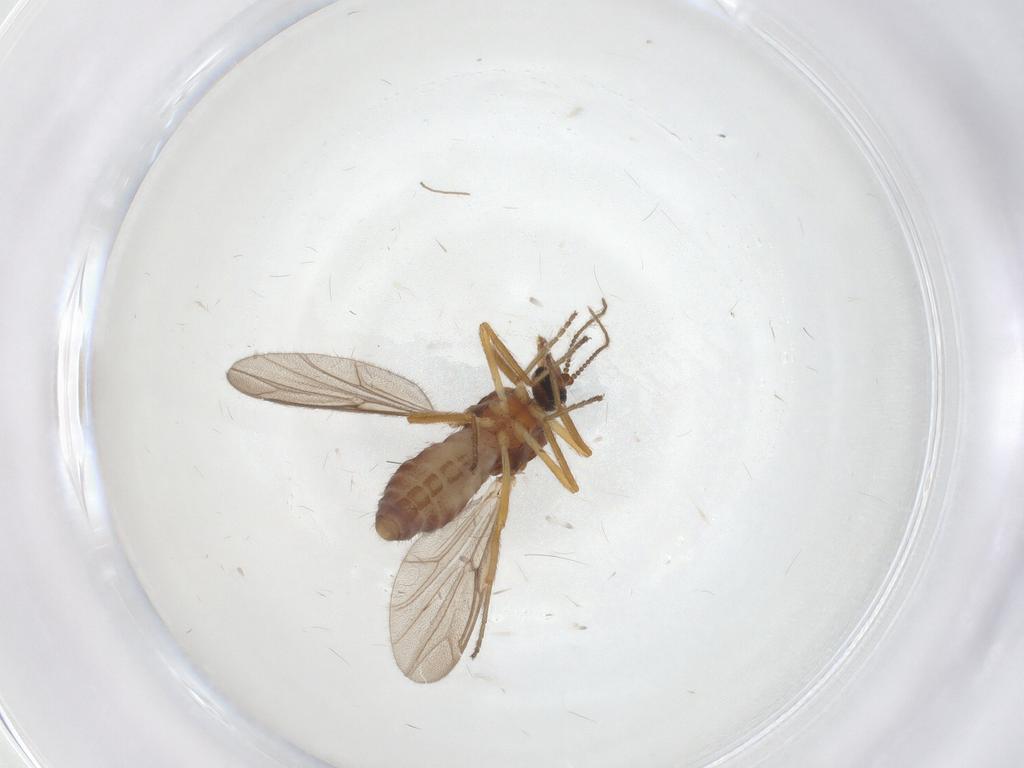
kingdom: Animalia
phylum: Arthropoda
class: Insecta
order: Diptera
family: Ceratopogonidae
